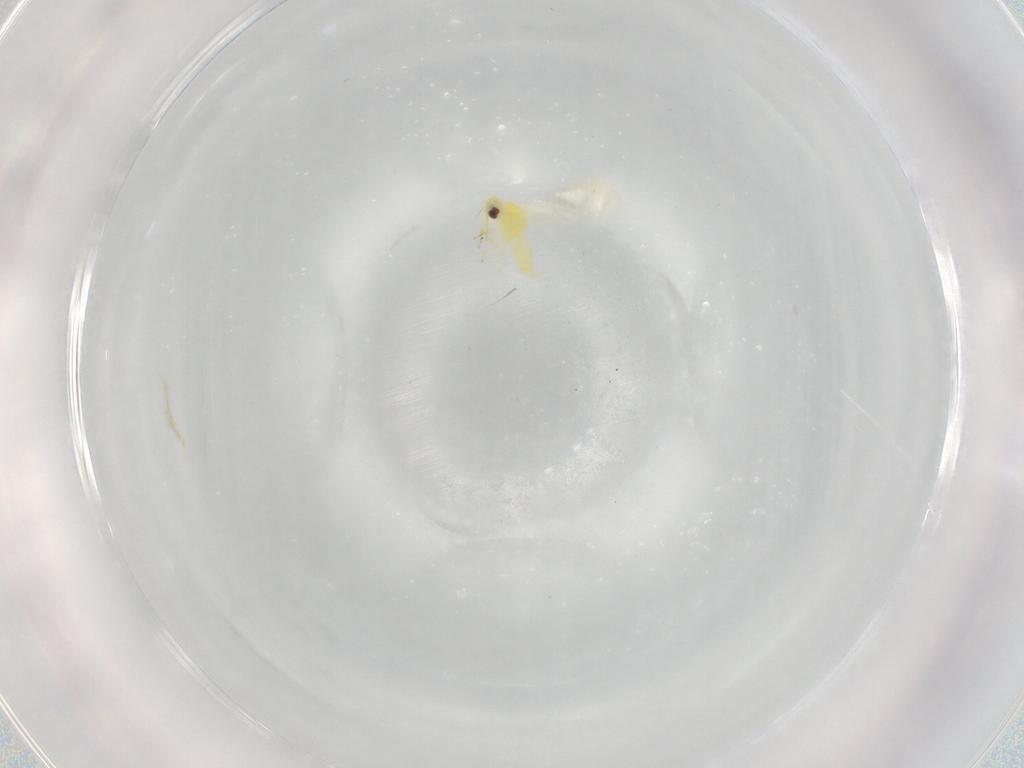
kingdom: Animalia
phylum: Arthropoda
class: Insecta
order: Hemiptera
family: Aleyrodidae
